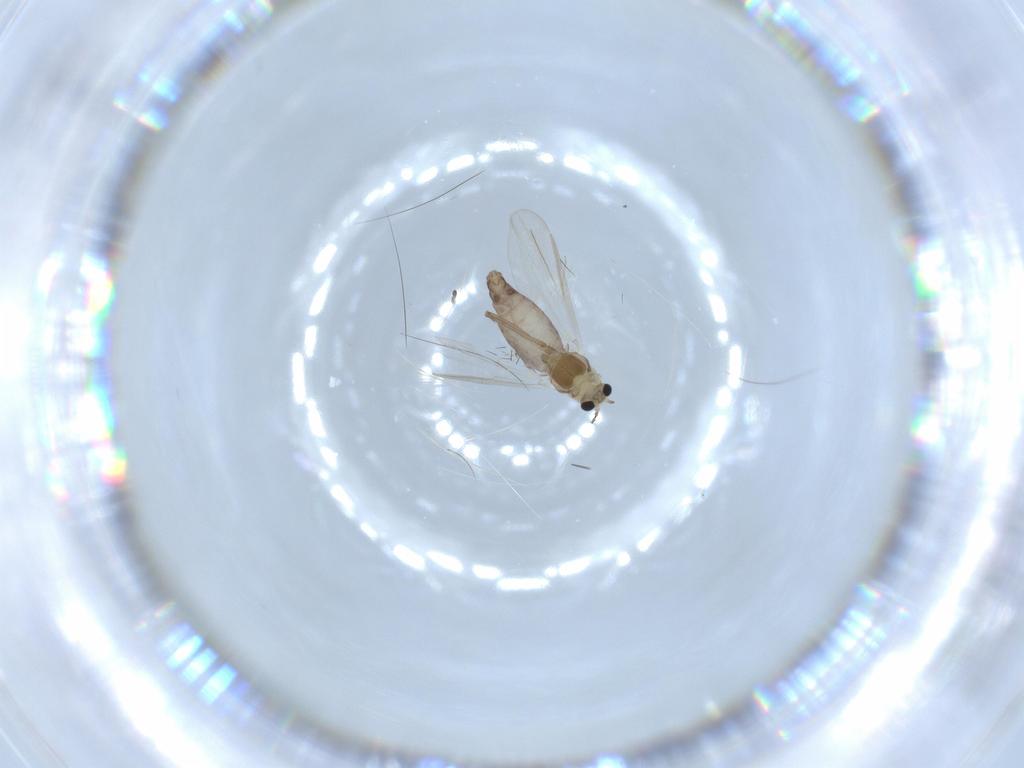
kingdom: Animalia
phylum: Arthropoda
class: Insecta
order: Diptera
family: Chironomidae
